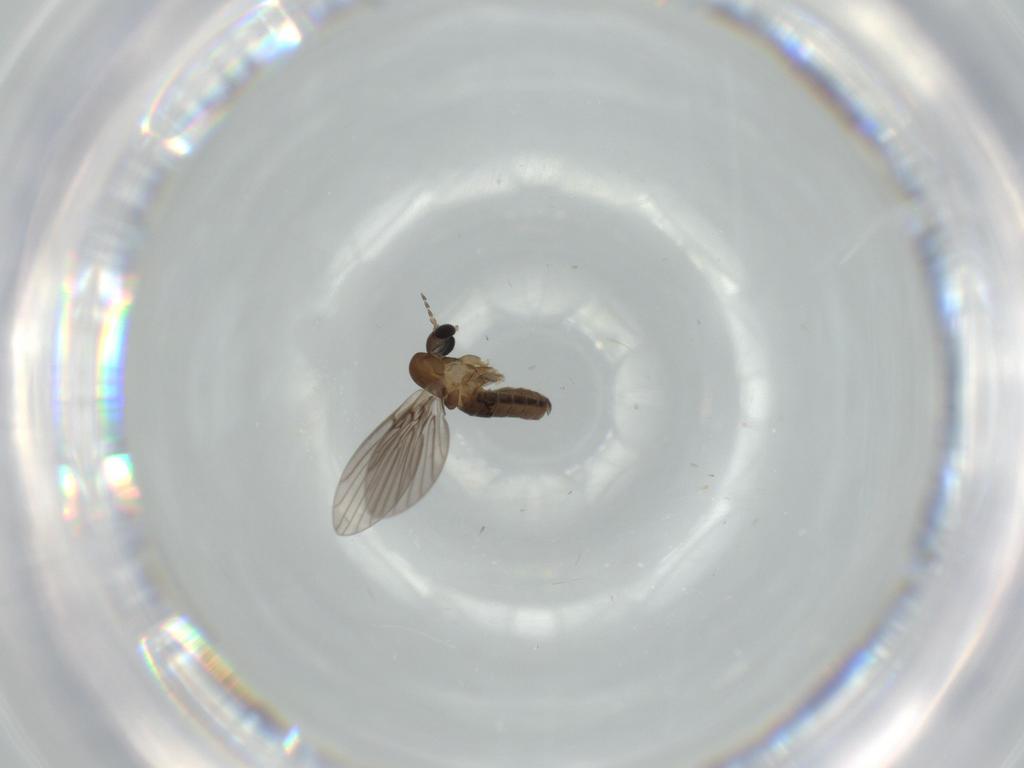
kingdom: Animalia
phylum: Arthropoda
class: Insecta
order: Diptera
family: Psychodidae
